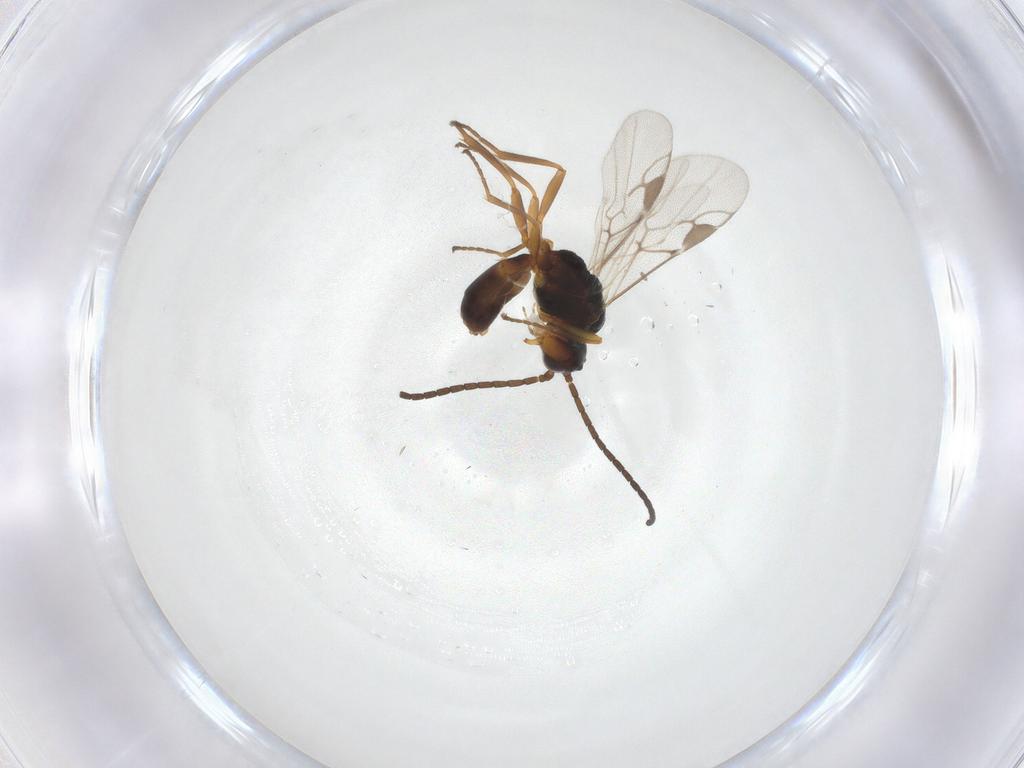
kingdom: Animalia
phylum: Arthropoda
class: Insecta
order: Hymenoptera
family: Braconidae
